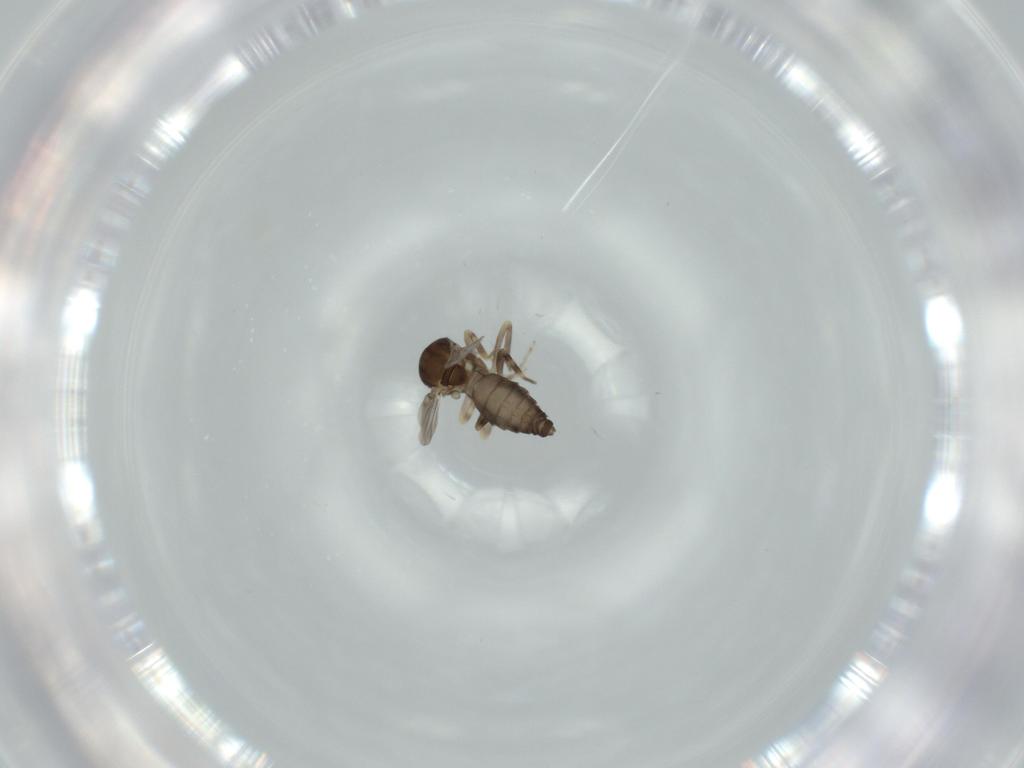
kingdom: Animalia
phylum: Arthropoda
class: Insecta
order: Diptera
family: Ceratopogonidae
